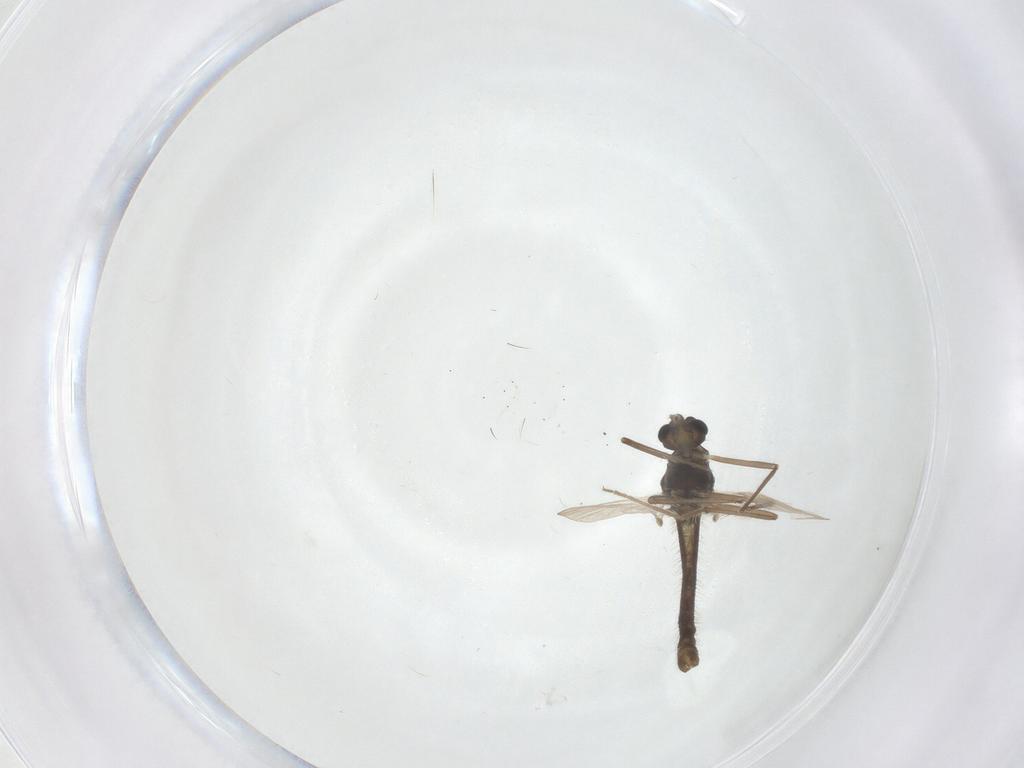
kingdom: Animalia
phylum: Arthropoda
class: Insecta
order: Diptera
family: Chironomidae
